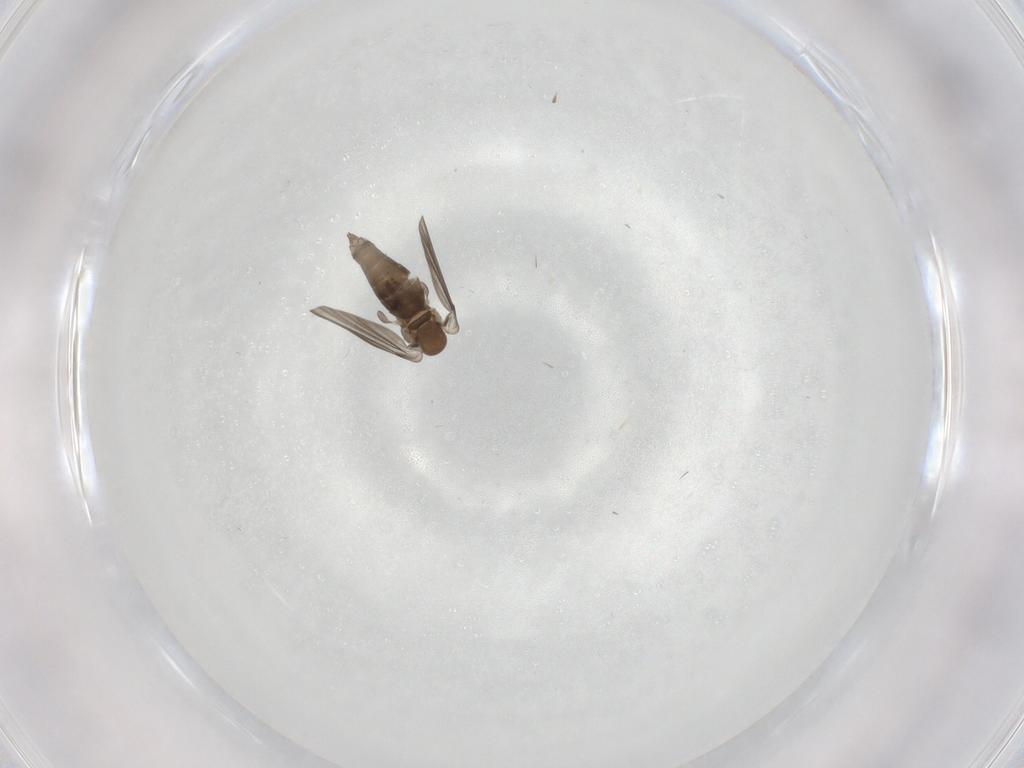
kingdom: Animalia
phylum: Arthropoda
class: Insecta
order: Diptera
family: Cecidomyiidae
